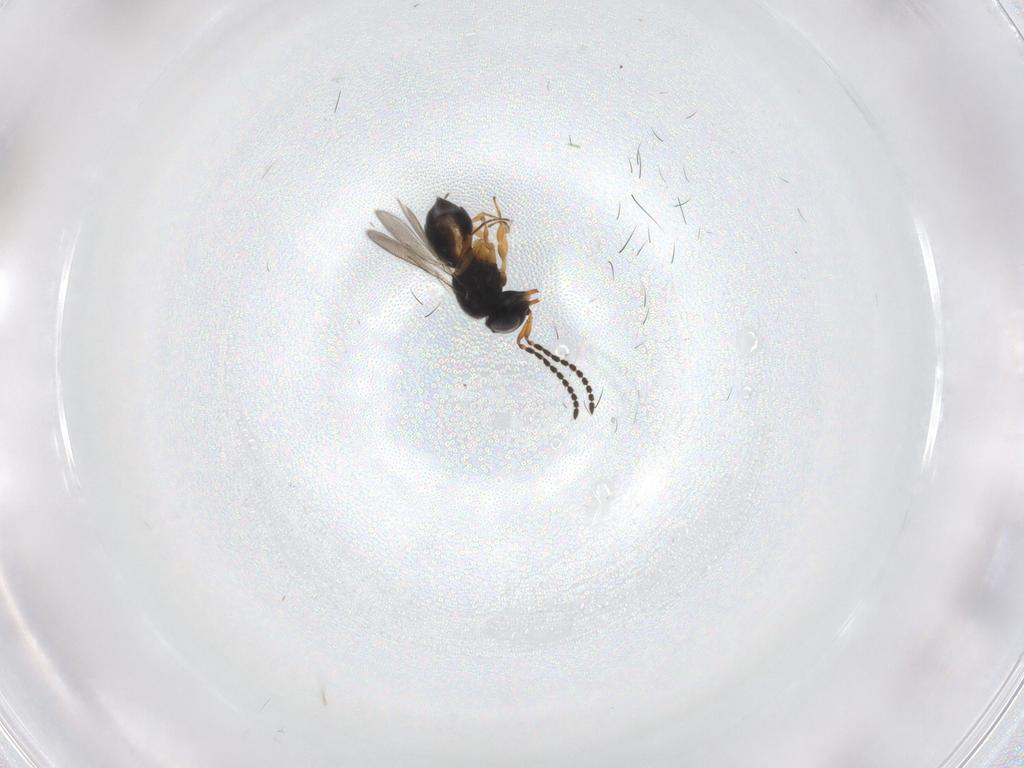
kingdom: Animalia
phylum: Arthropoda
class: Insecta
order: Hymenoptera
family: Scelionidae
